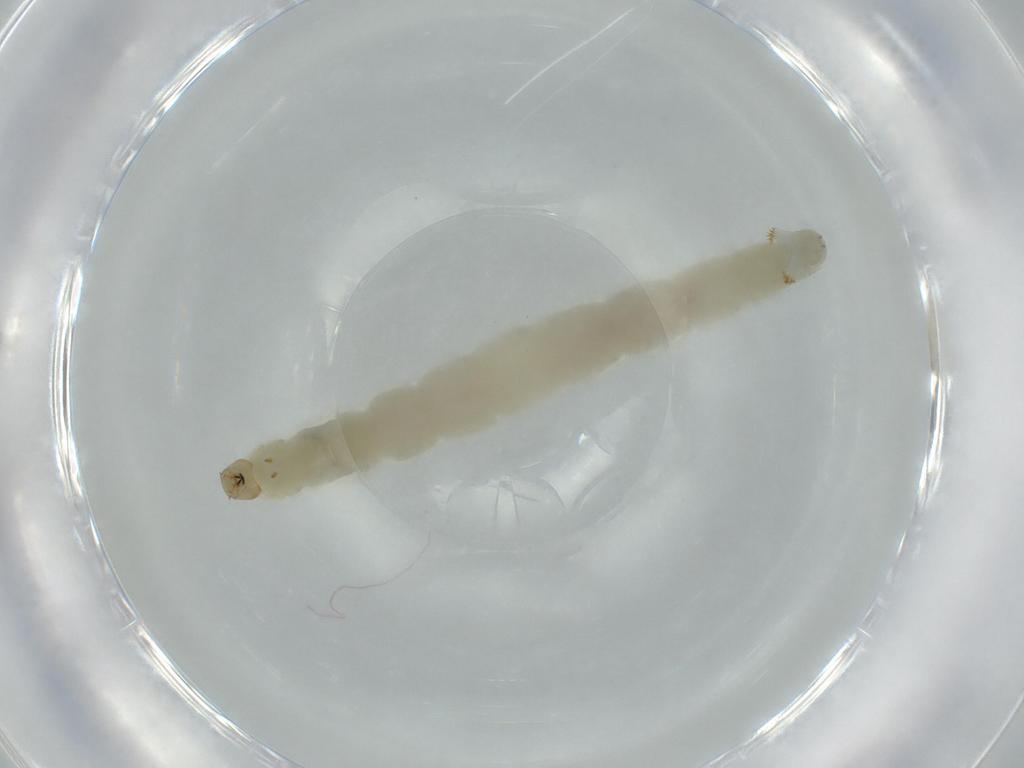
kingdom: Animalia
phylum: Arthropoda
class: Insecta
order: Diptera
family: Chironomidae
